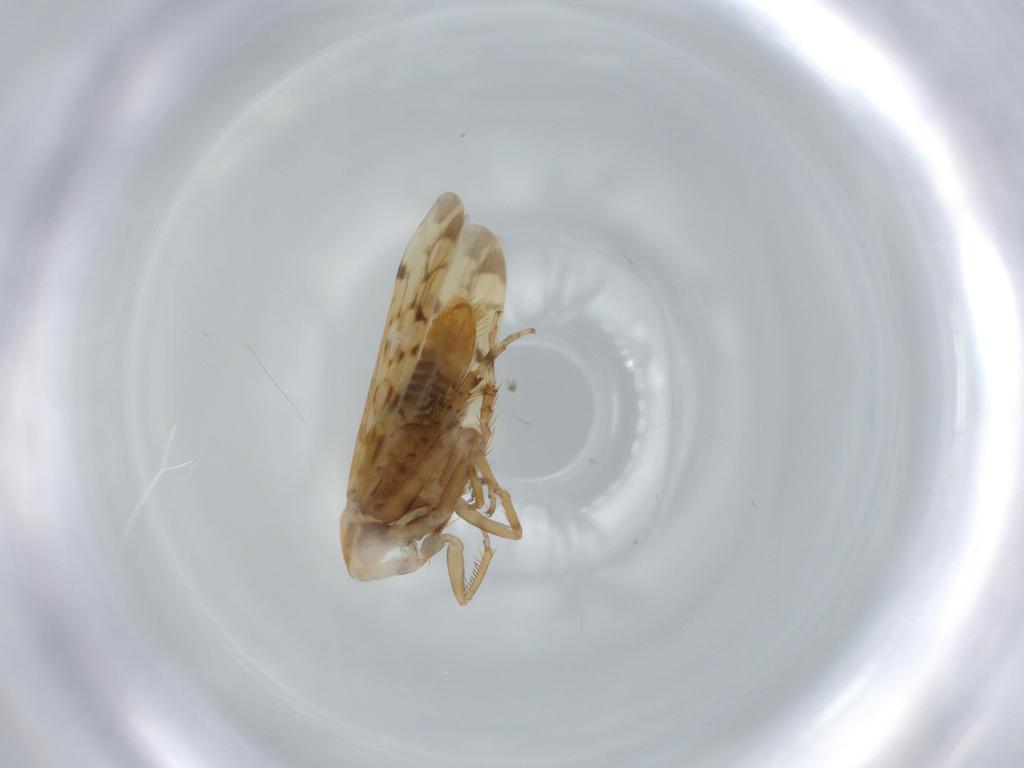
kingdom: Animalia
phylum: Arthropoda
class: Insecta
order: Hemiptera
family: Cicadellidae
